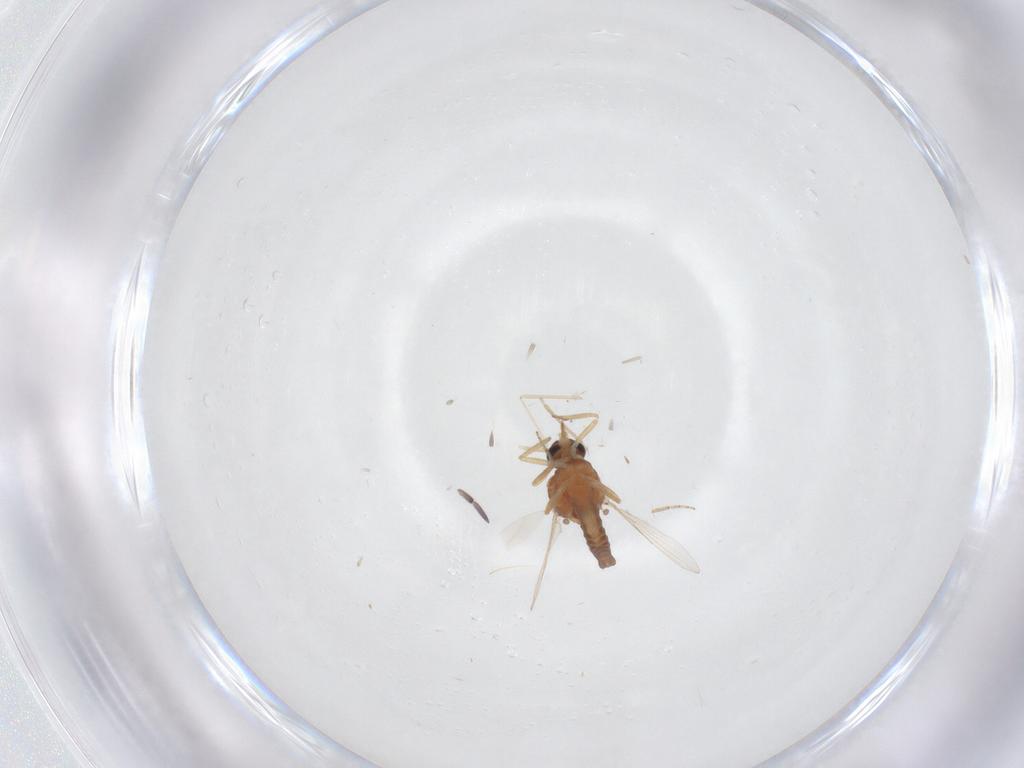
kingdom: Animalia
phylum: Arthropoda
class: Insecta
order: Diptera
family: Ceratopogonidae
